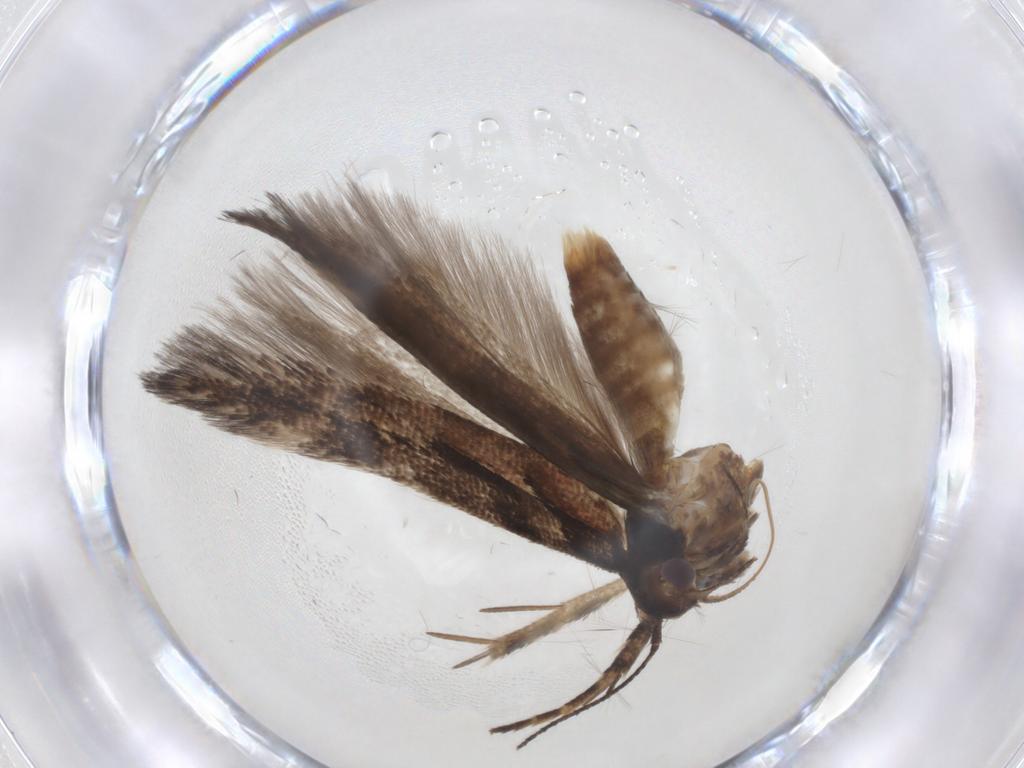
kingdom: Animalia
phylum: Arthropoda
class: Insecta
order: Lepidoptera
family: Gelechiidae
